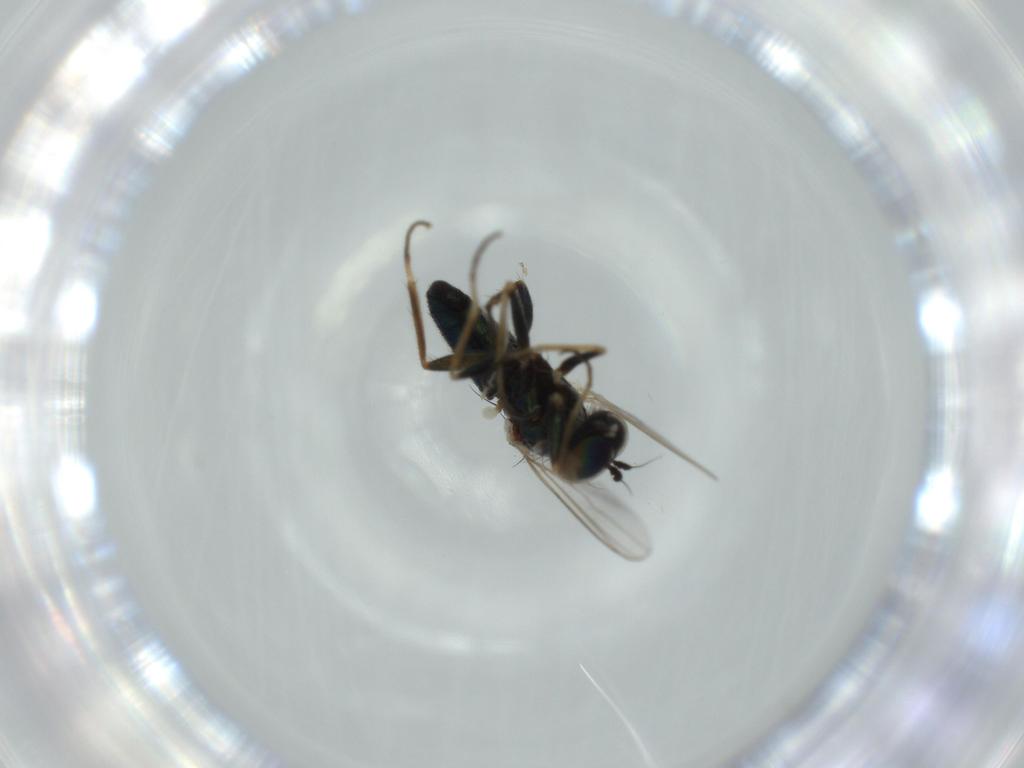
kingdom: Animalia
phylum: Arthropoda
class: Insecta
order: Diptera
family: Dolichopodidae
